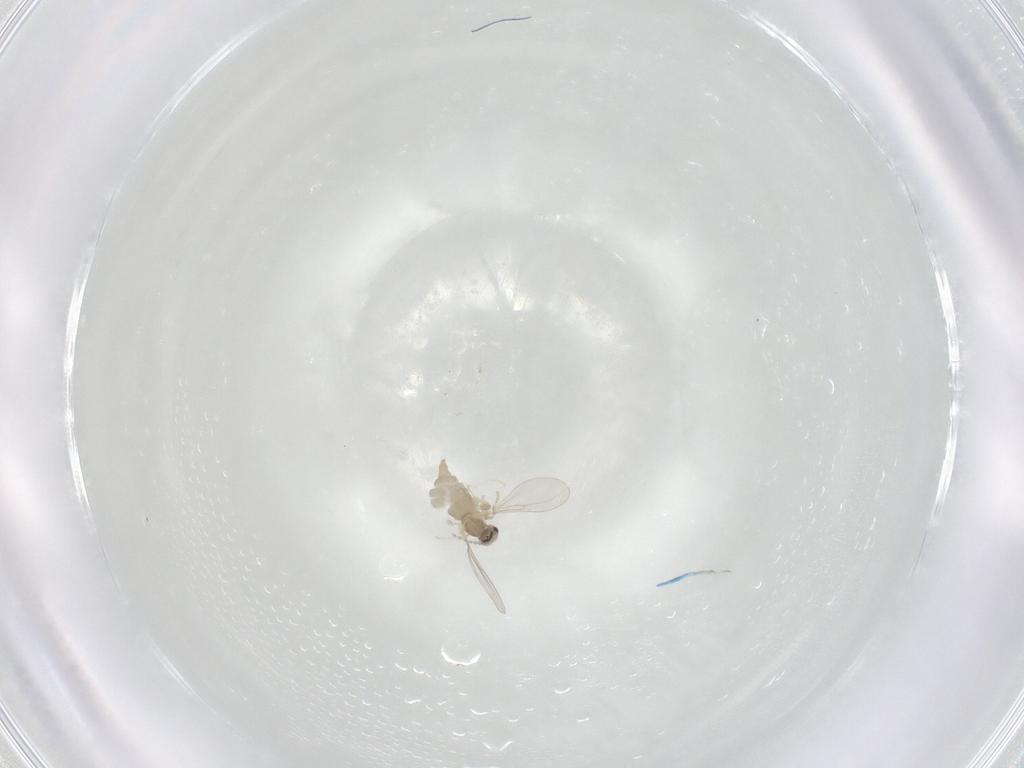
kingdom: Animalia
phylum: Arthropoda
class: Insecta
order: Diptera
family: Cecidomyiidae
